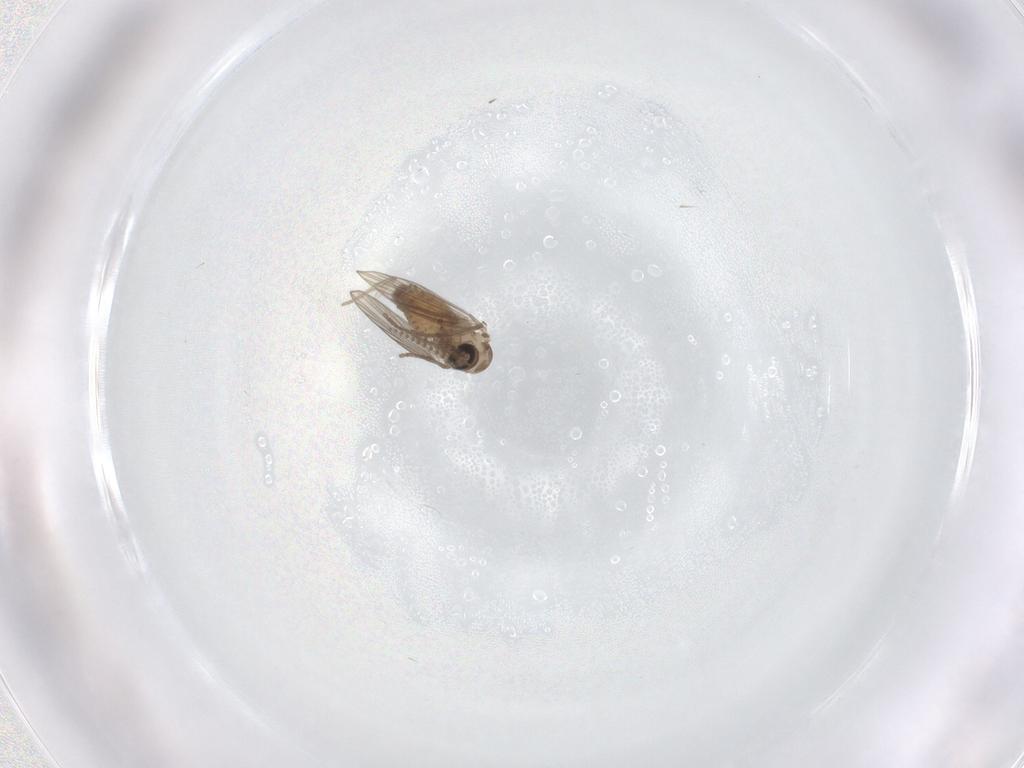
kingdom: Animalia
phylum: Arthropoda
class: Insecta
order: Diptera
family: Psychodidae
